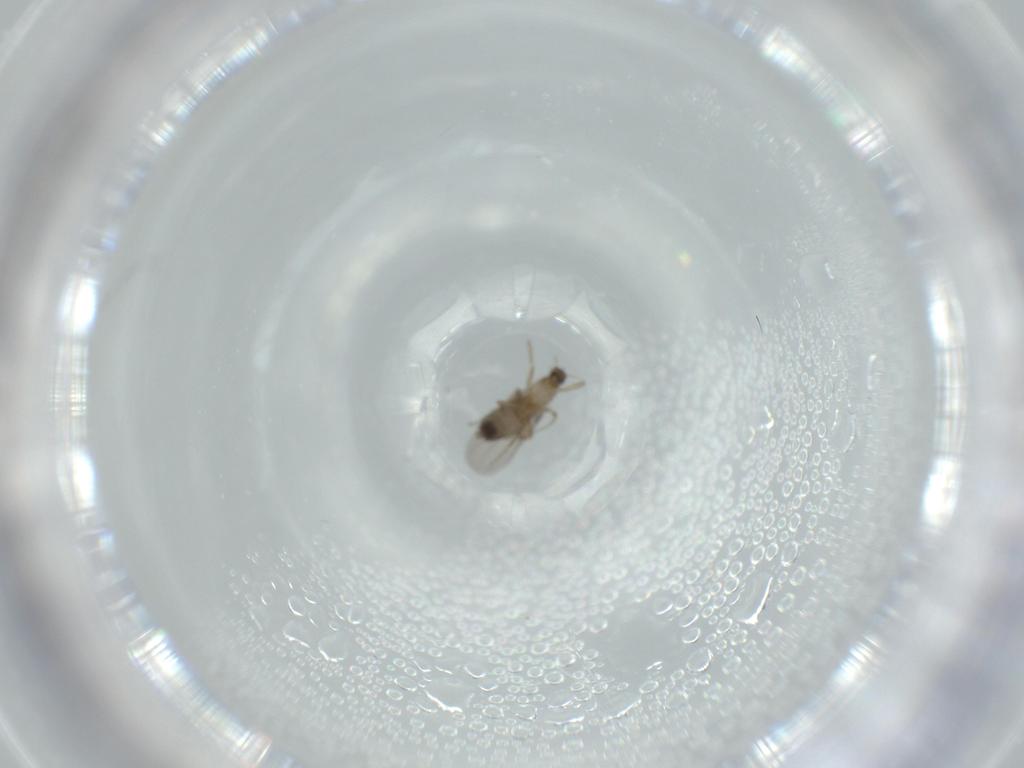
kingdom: Animalia
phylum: Arthropoda
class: Insecta
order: Diptera
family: Milichiidae
